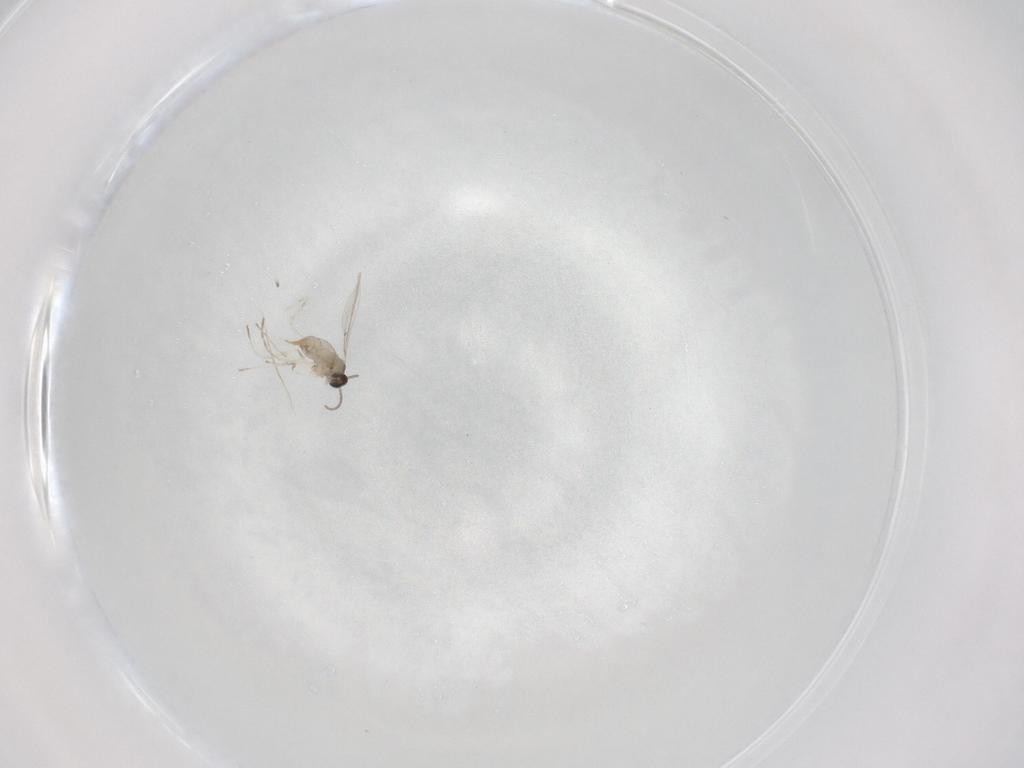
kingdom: Animalia
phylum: Arthropoda
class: Insecta
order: Diptera
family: Cecidomyiidae
